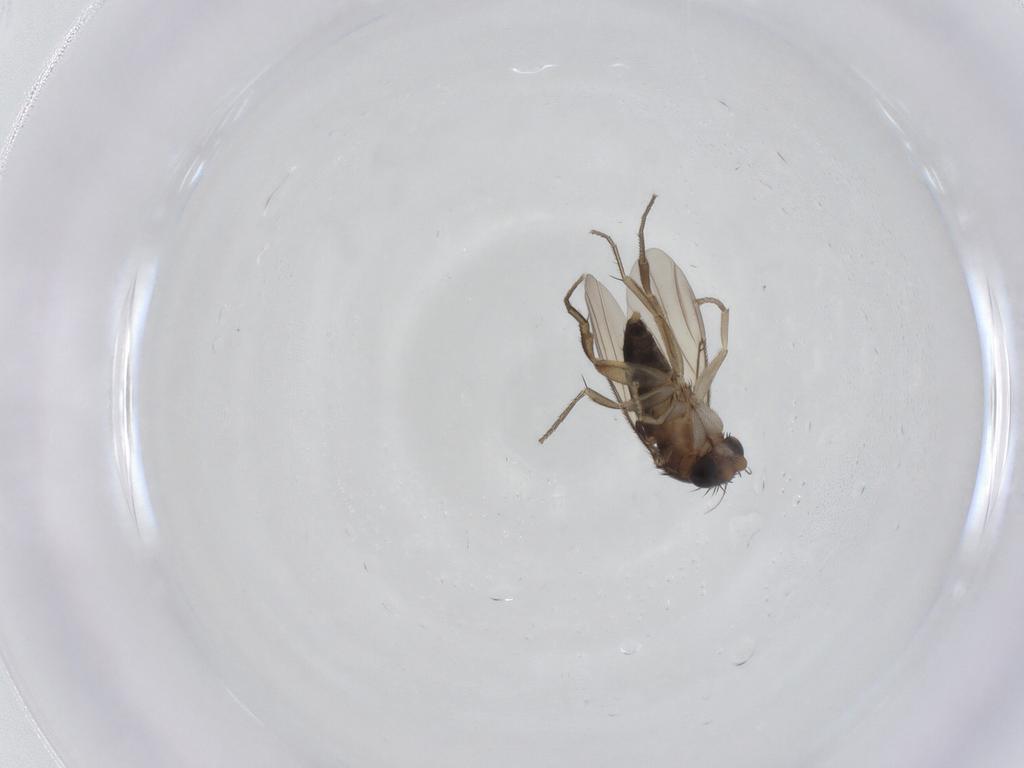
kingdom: Animalia
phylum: Arthropoda
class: Insecta
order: Diptera
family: Phoridae
